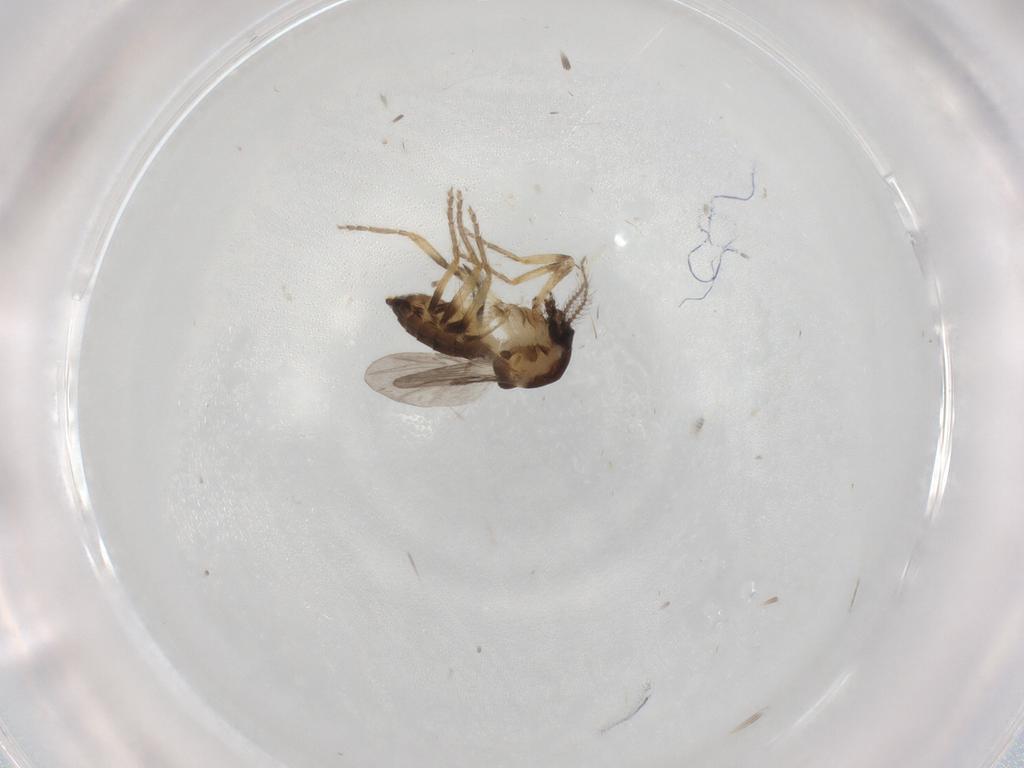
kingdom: Animalia
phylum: Arthropoda
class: Insecta
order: Diptera
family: Ceratopogonidae
